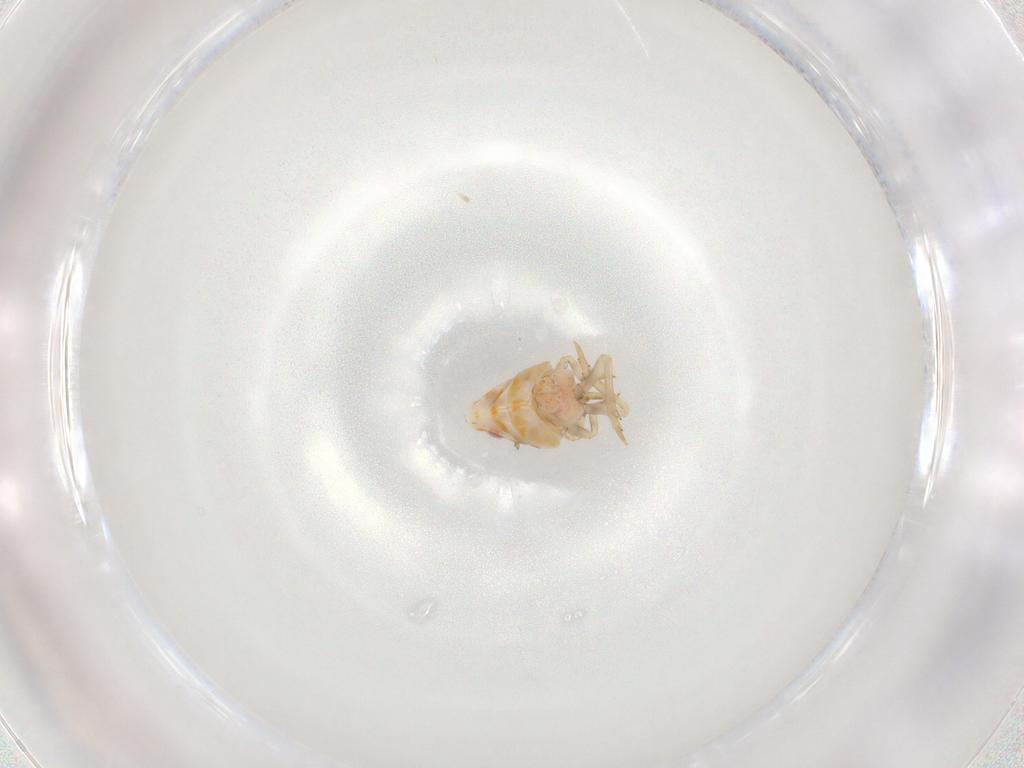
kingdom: Animalia
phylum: Arthropoda
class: Insecta
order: Hemiptera
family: Ricaniidae
